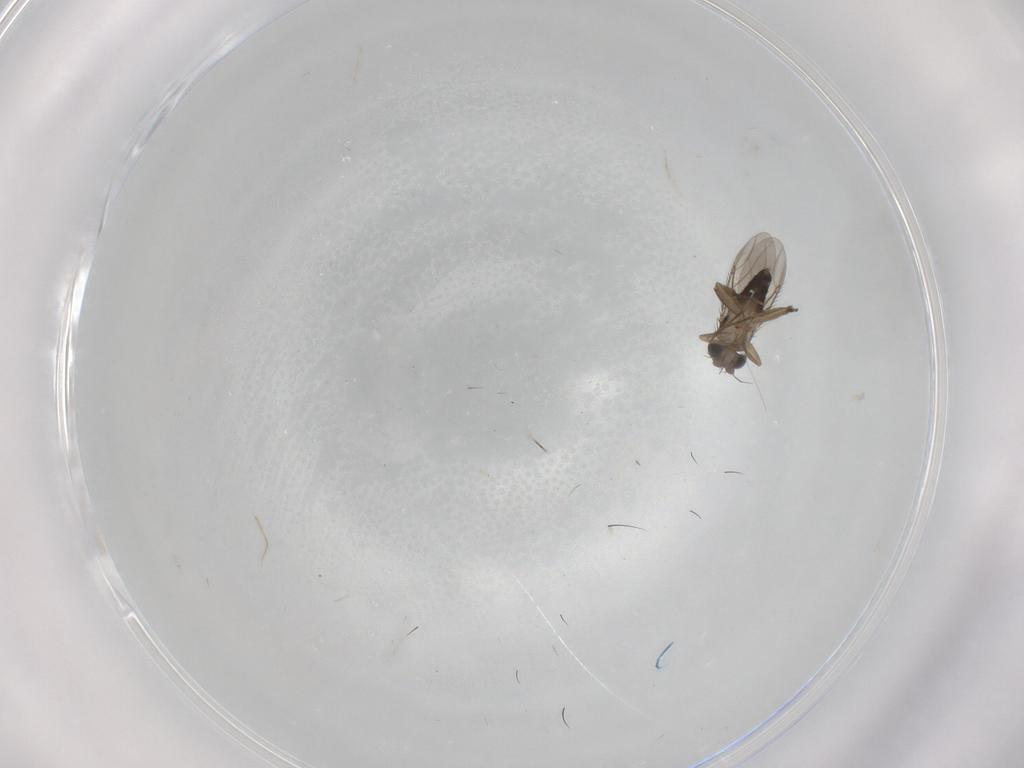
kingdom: Animalia
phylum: Arthropoda
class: Insecta
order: Diptera
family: Phoridae
